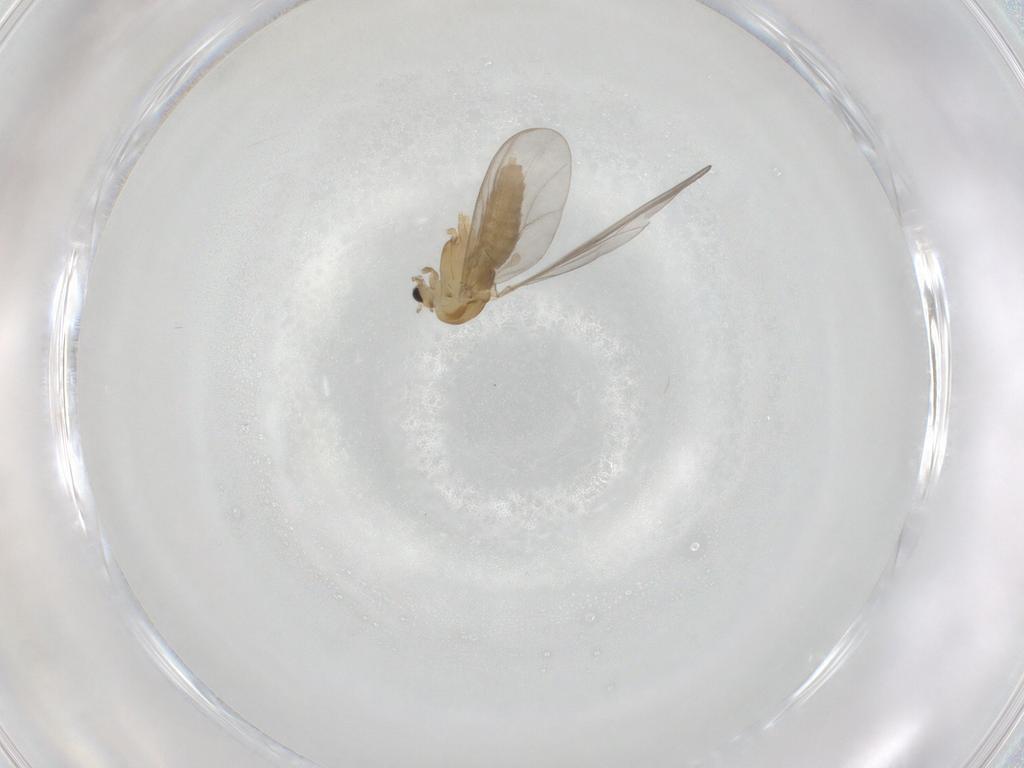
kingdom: Animalia
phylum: Arthropoda
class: Insecta
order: Diptera
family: Chironomidae
